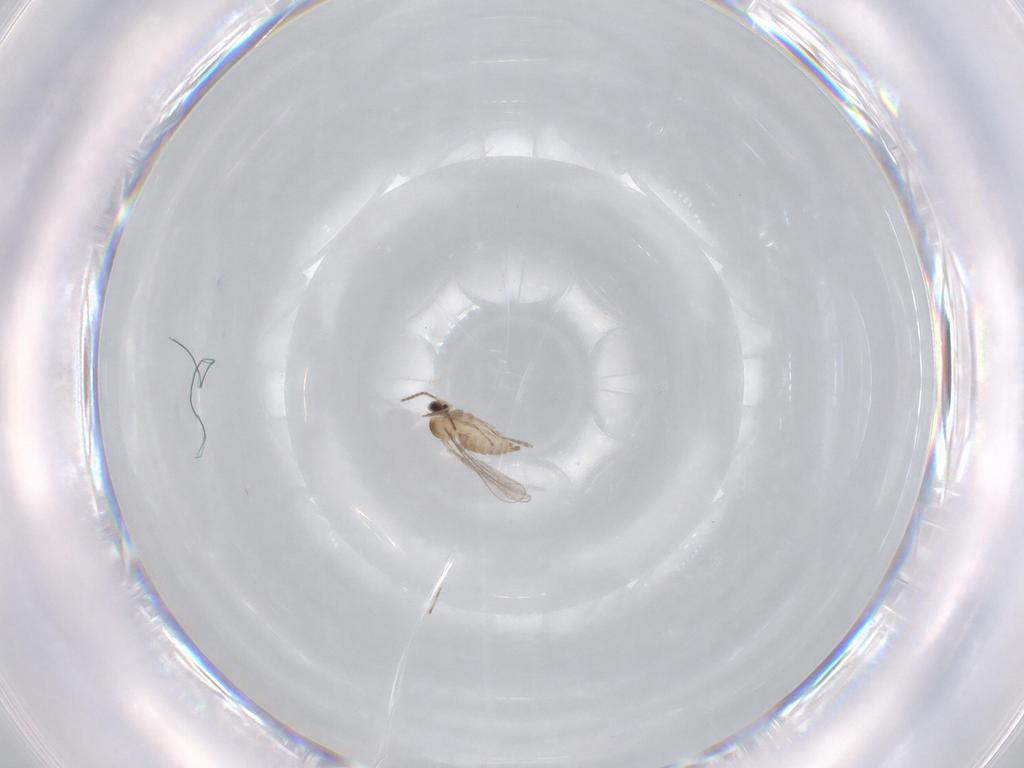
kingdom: Animalia
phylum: Arthropoda
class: Insecta
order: Diptera
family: Cecidomyiidae
